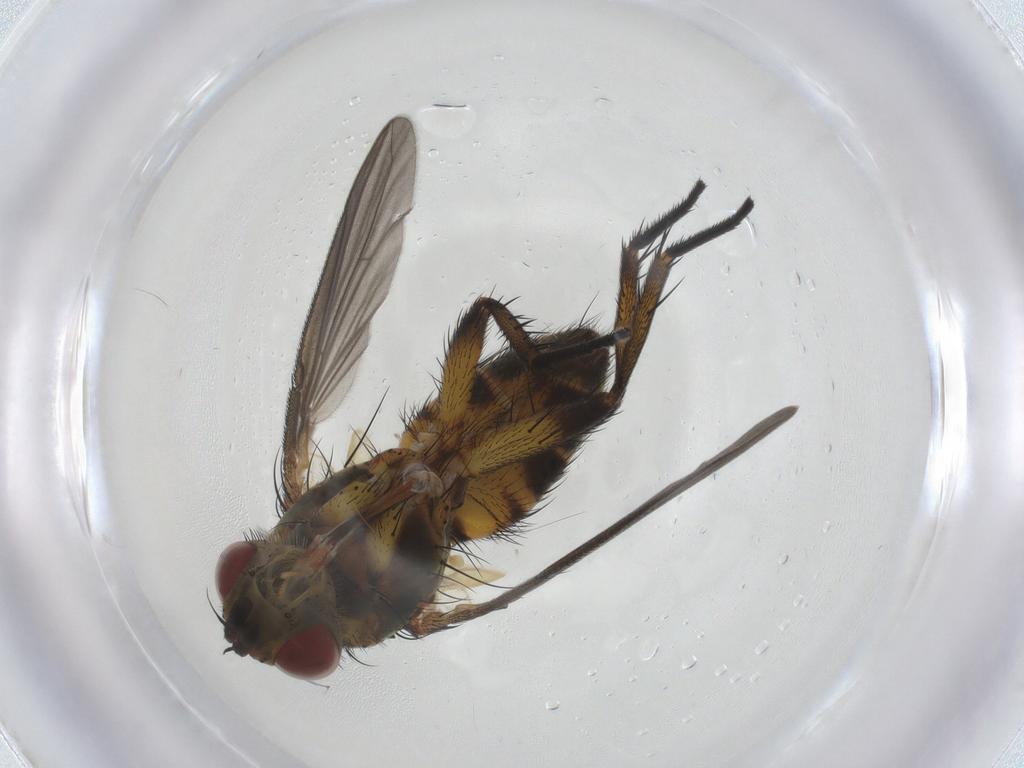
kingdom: Animalia
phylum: Arthropoda
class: Insecta
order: Diptera
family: Tachinidae
